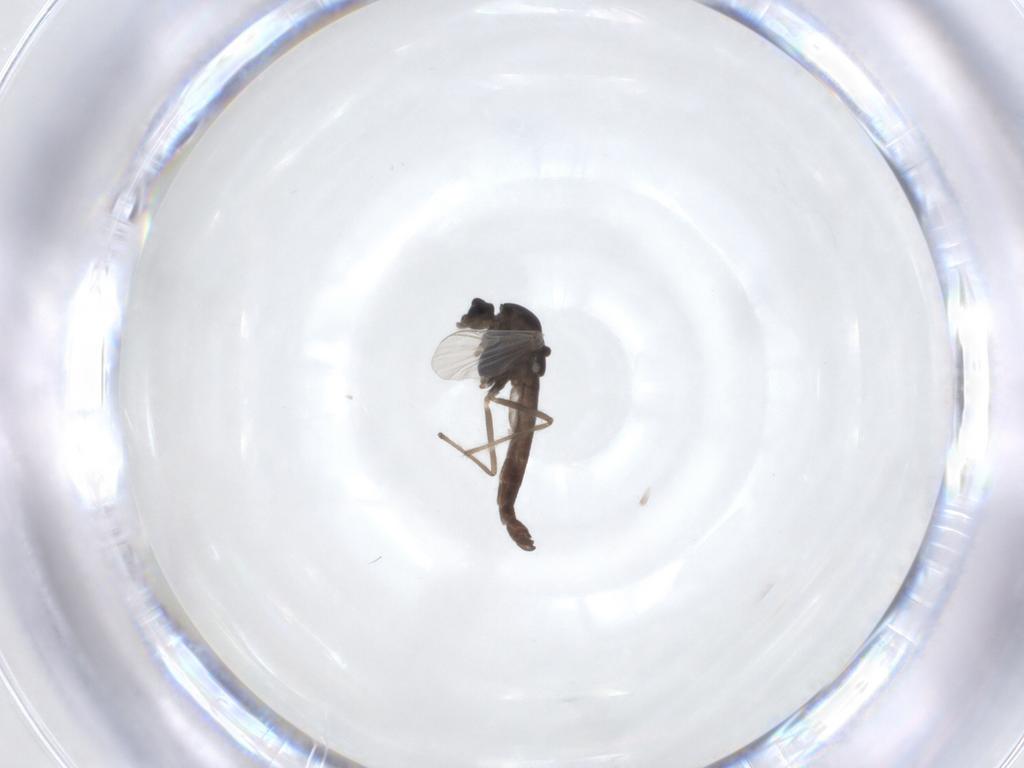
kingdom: Animalia
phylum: Arthropoda
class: Insecta
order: Diptera
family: Chironomidae
